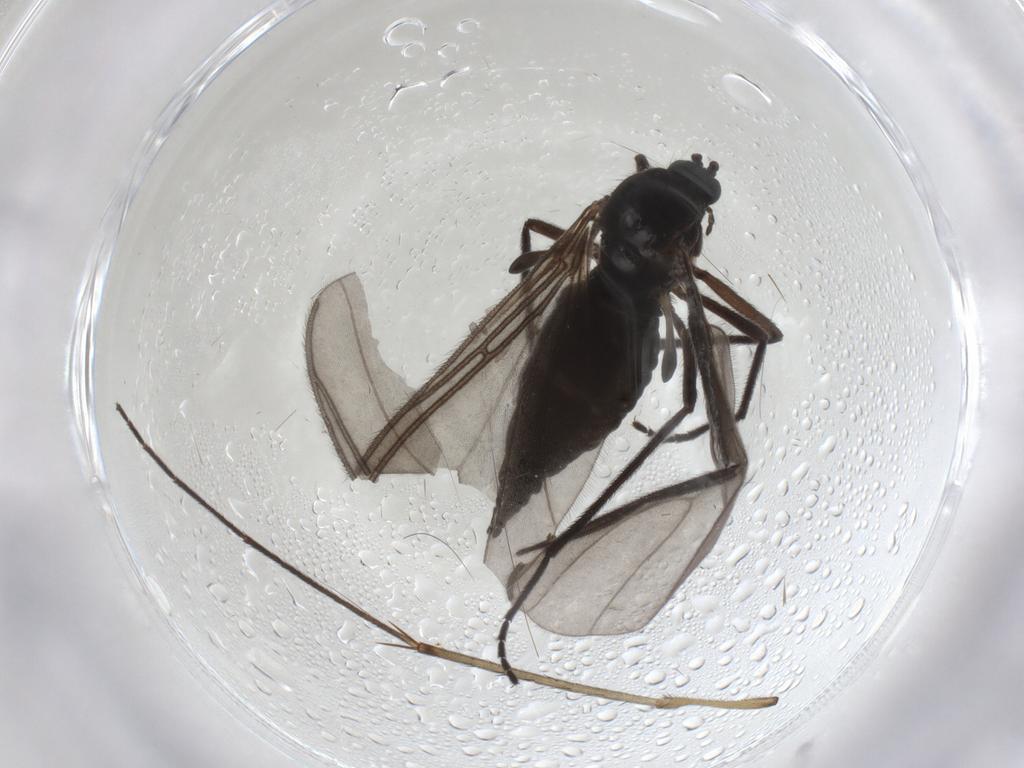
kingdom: Animalia
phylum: Arthropoda
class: Insecta
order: Diptera
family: Sciaridae
